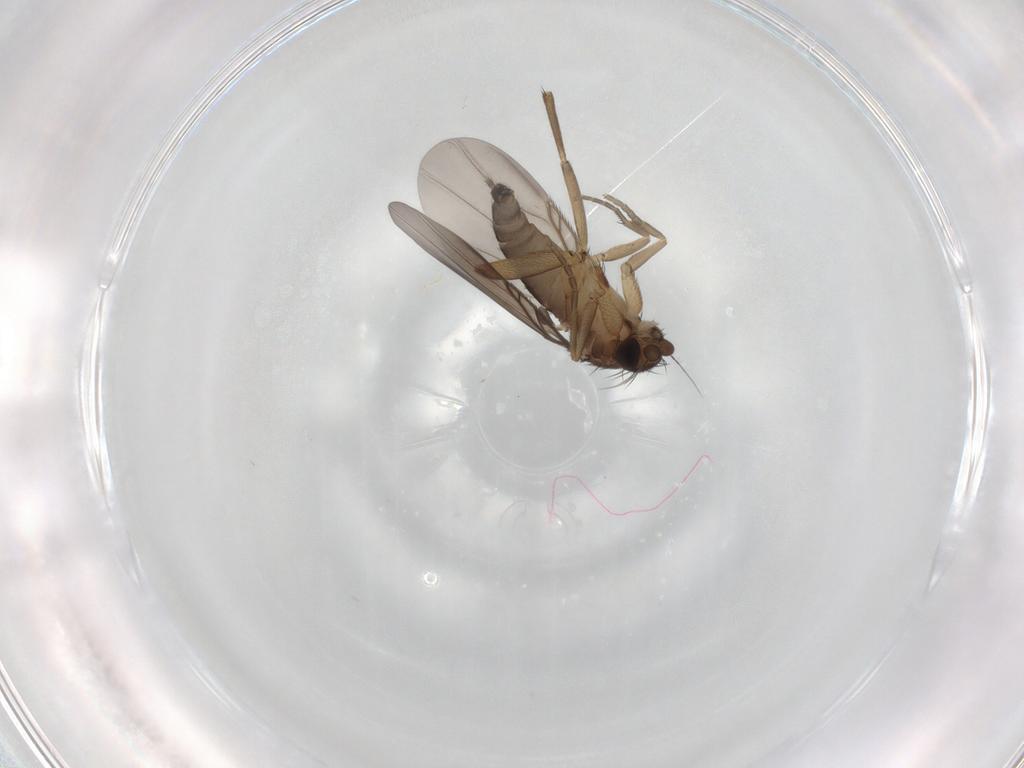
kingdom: Animalia
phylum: Arthropoda
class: Insecta
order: Diptera
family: Phoridae
